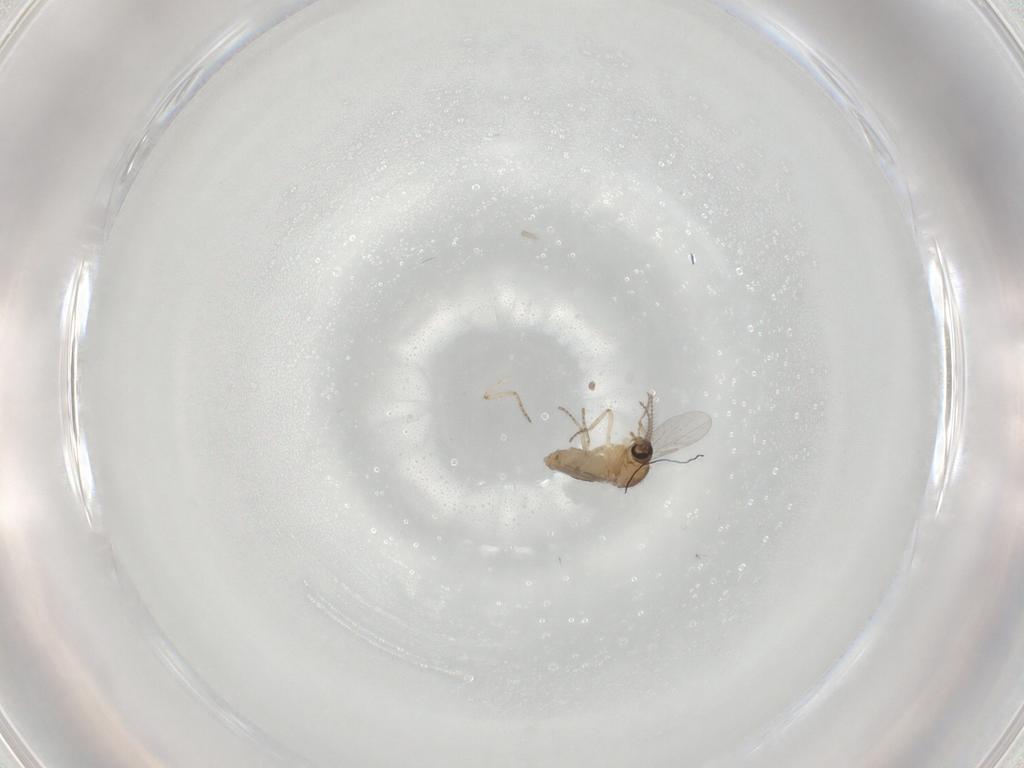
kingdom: Animalia
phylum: Arthropoda
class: Insecta
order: Diptera
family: Ceratopogonidae
